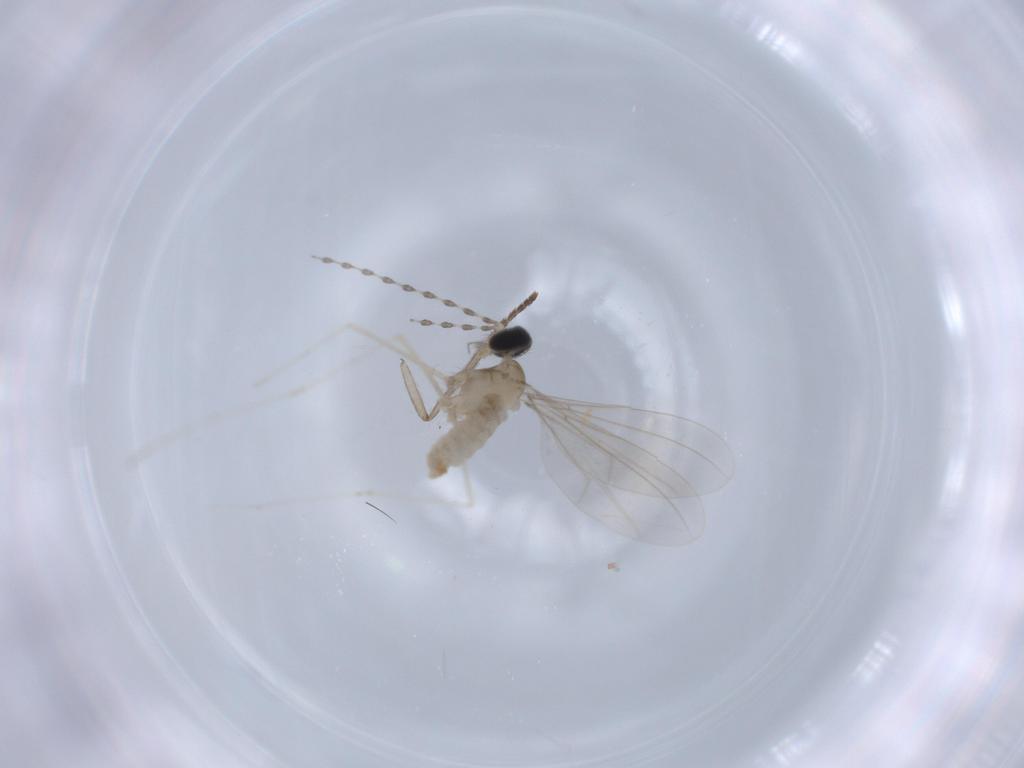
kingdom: Animalia
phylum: Arthropoda
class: Insecta
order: Diptera
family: Psychodidae
